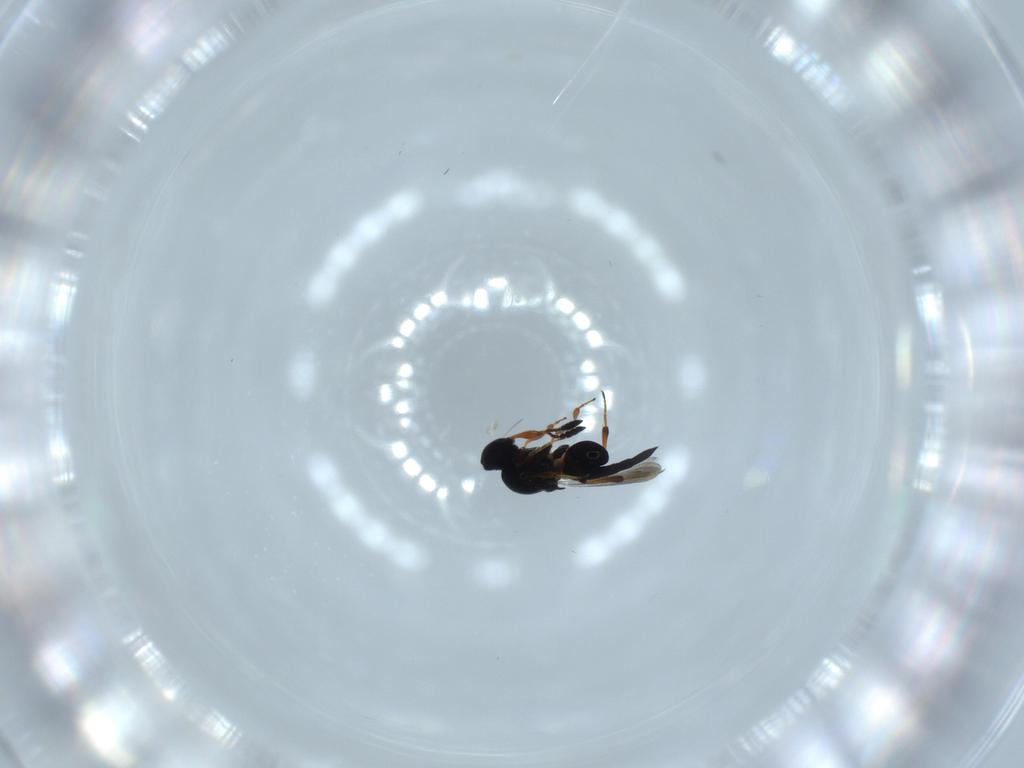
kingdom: Animalia
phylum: Arthropoda
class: Insecta
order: Hymenoptera
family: Platygastridae
